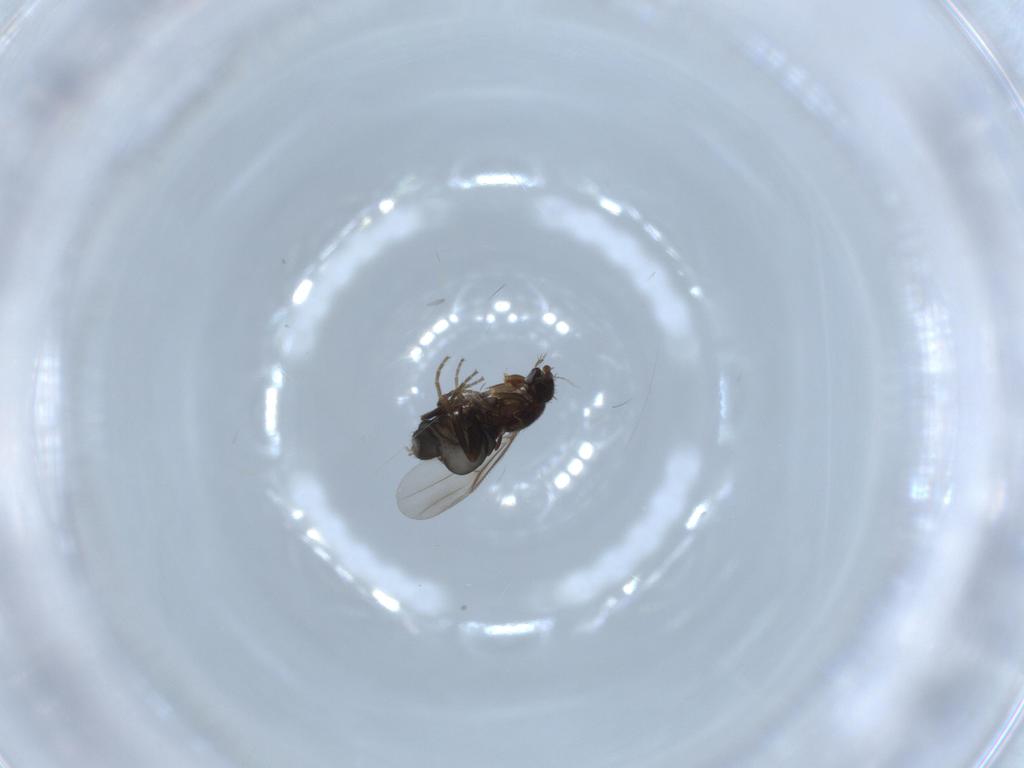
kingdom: Animalia
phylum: Arthropoda
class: Insecta
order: Diptera
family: Phoridae
